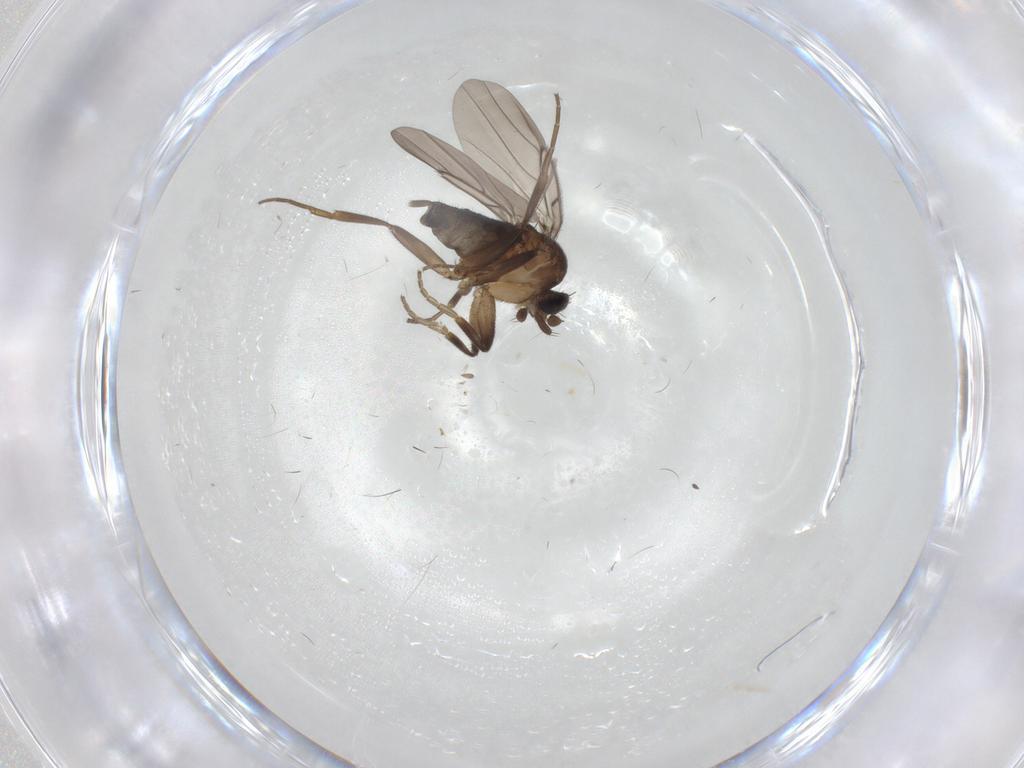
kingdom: Animalia
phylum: Arthropoda
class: Insecta
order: Diptera
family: Phoridae
